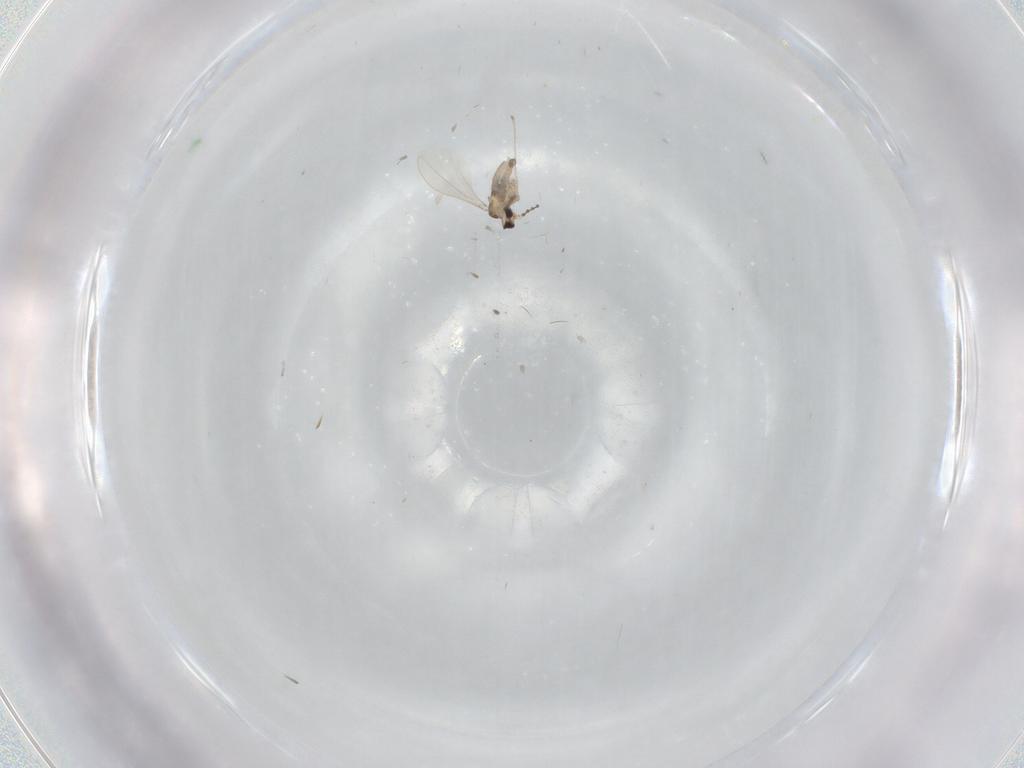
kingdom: Animalia
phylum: Arthropoda
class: Insecta
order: Diptera
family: Cecidomyiidae
